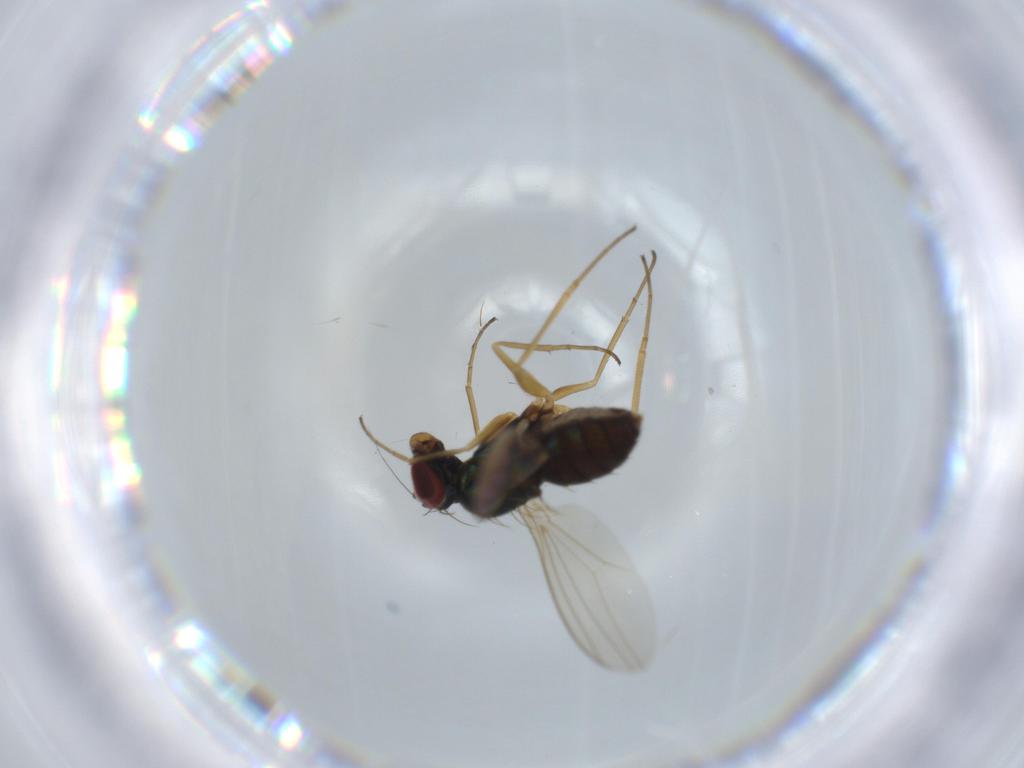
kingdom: Animalia
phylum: Arthropoda
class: Insecta
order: Diptera
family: Dolichopodidae
